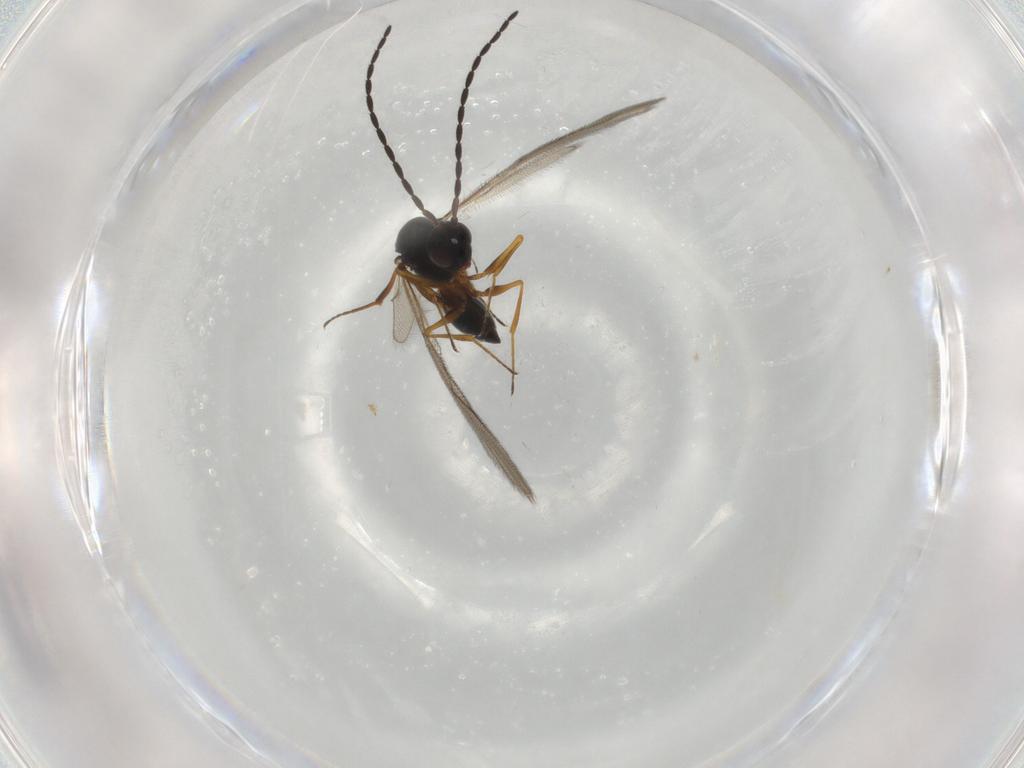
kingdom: Animalia
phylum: Arthropoda
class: Insecta
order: Hymenoptera
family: Figitidae
